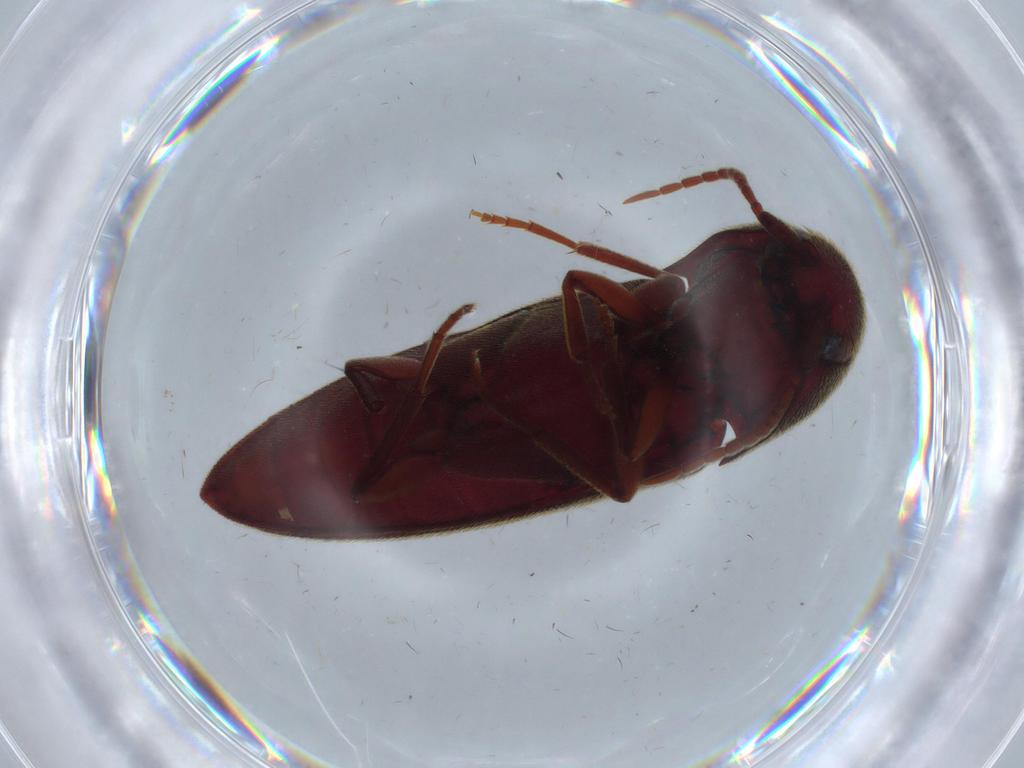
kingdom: Animalia
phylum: Arthropoda
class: Insecta
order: Coleoptera
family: Eucnemidae
